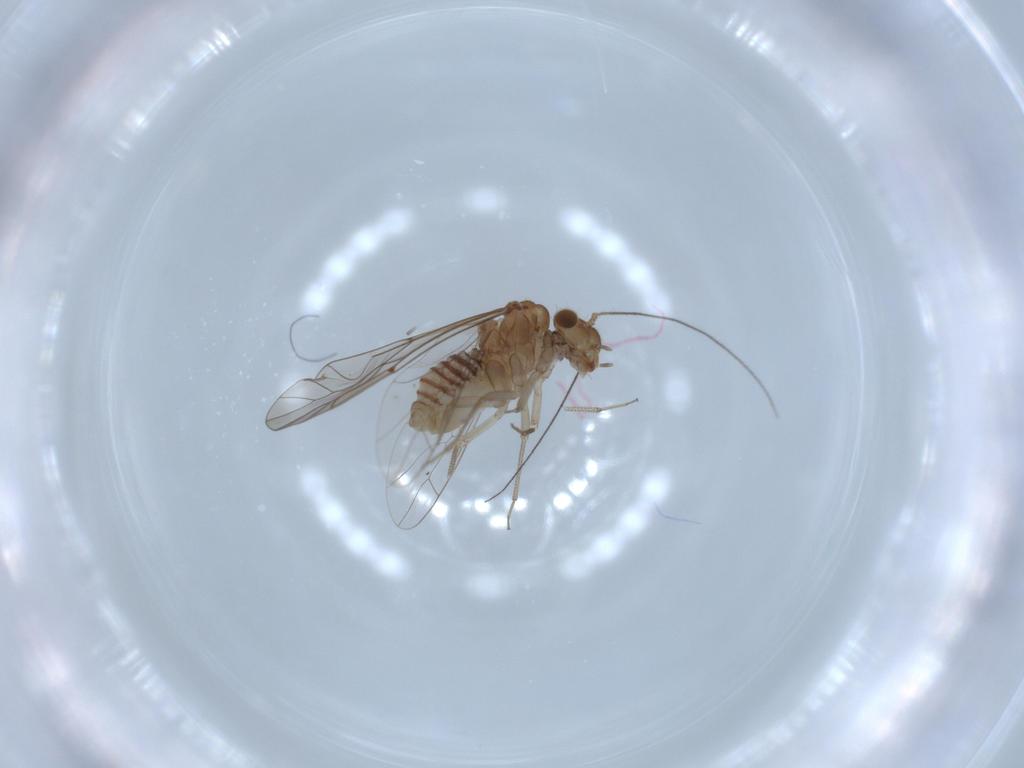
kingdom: Animalia
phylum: Arthropoda
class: Insecta
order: Psocodea
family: Lachesillidae
